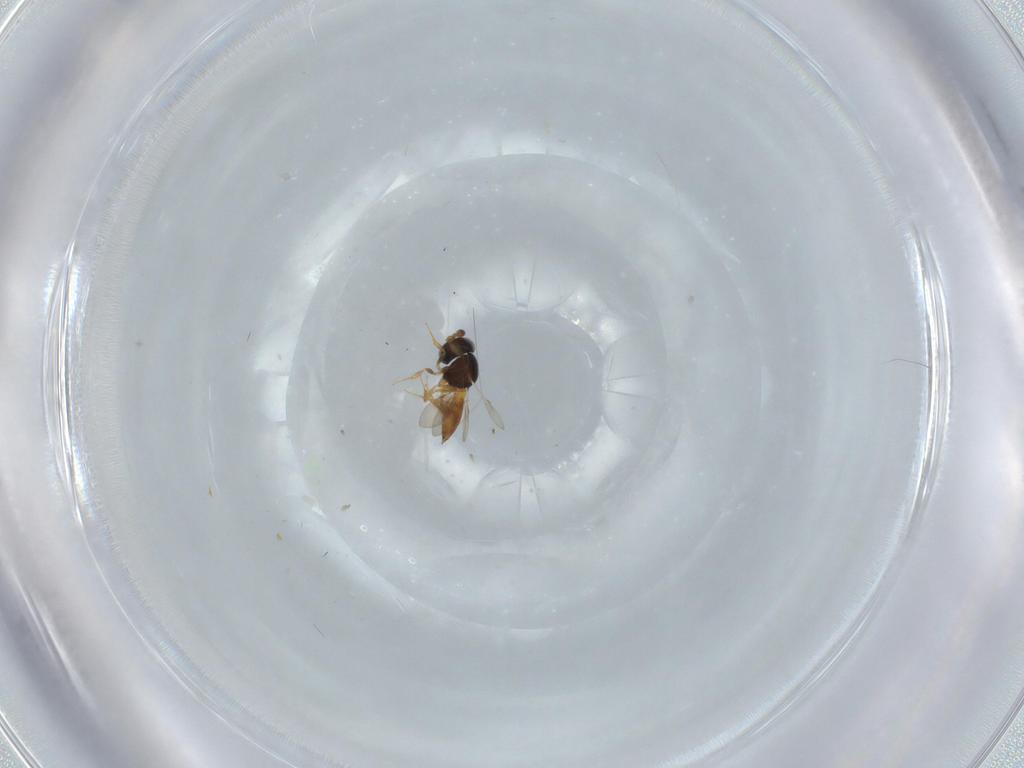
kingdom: Animalia
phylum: Arthropoda
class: Insecta
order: Hymenoptera
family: Scelionidae
